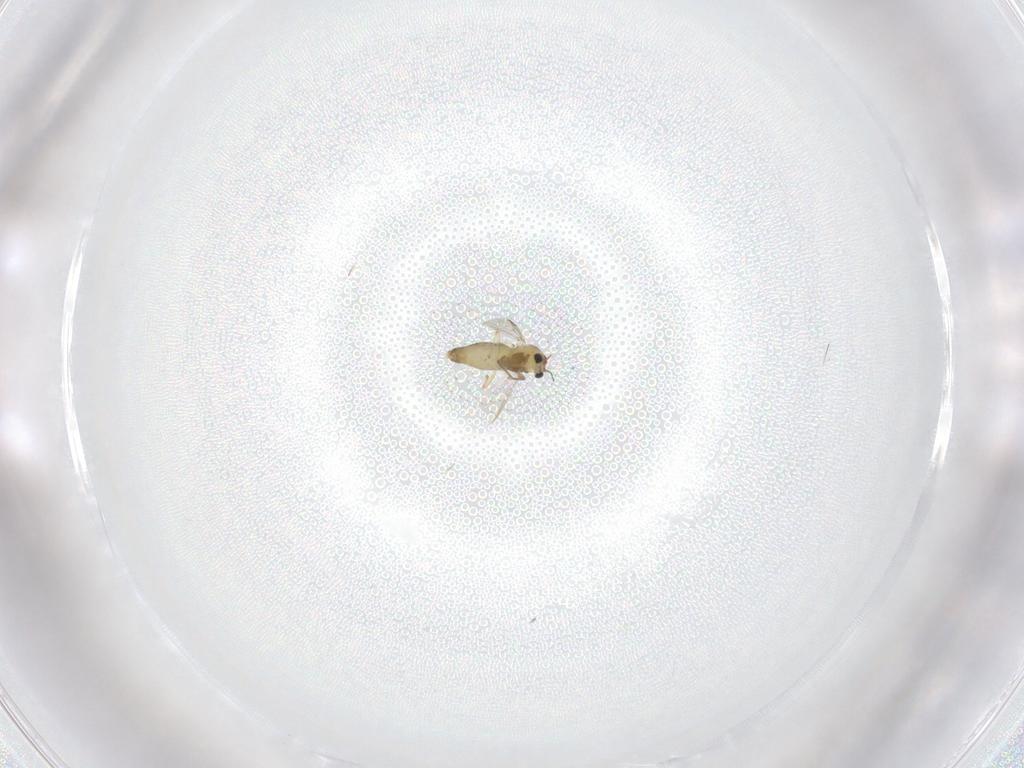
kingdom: Animalia
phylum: Arthropoda
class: Insecta
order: Diptera
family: Chironomidae
